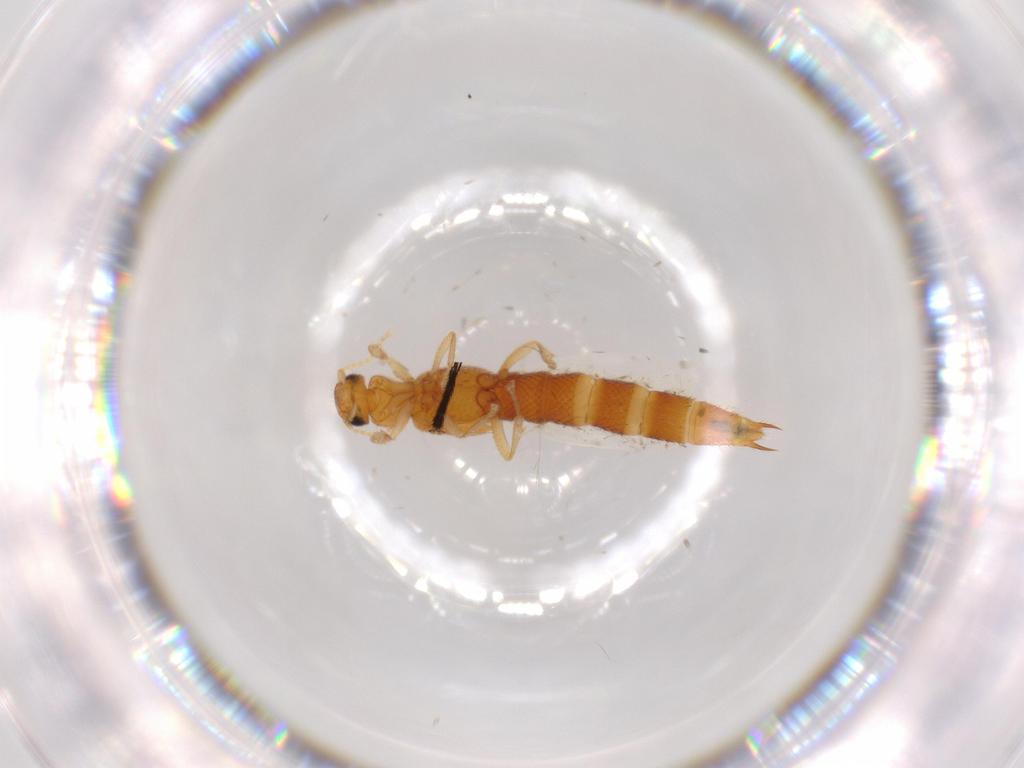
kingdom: Animalia
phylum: Arthropoda
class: Insecta
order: Coleoptera
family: Staphylinidae
